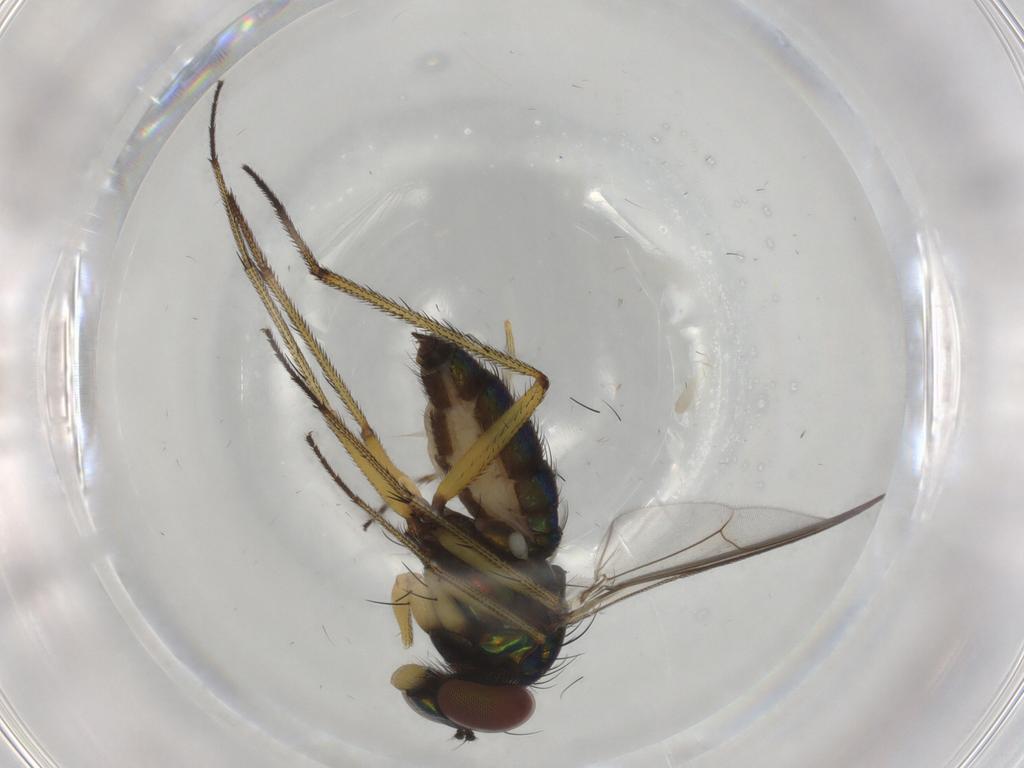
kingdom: Animalia
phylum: Arthropoda
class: Insecta
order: Diptera
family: Dolichopodidae
